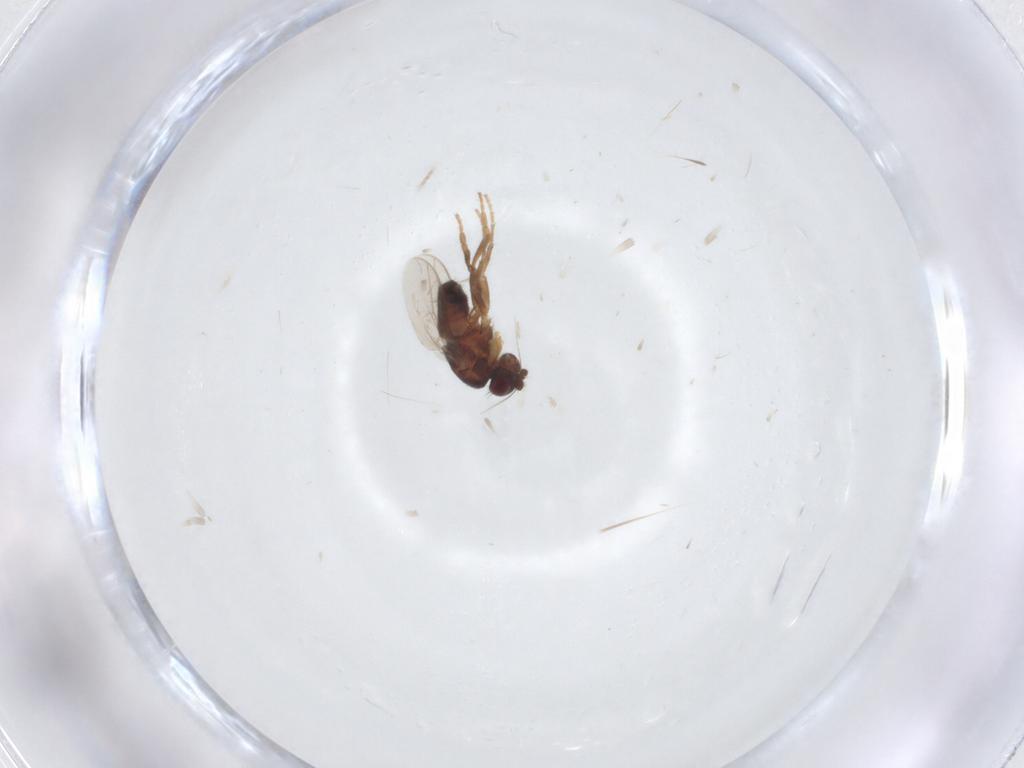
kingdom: Animalia
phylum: Arthropoda
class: Insecta
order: Diptera
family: Sphaeroceridae
